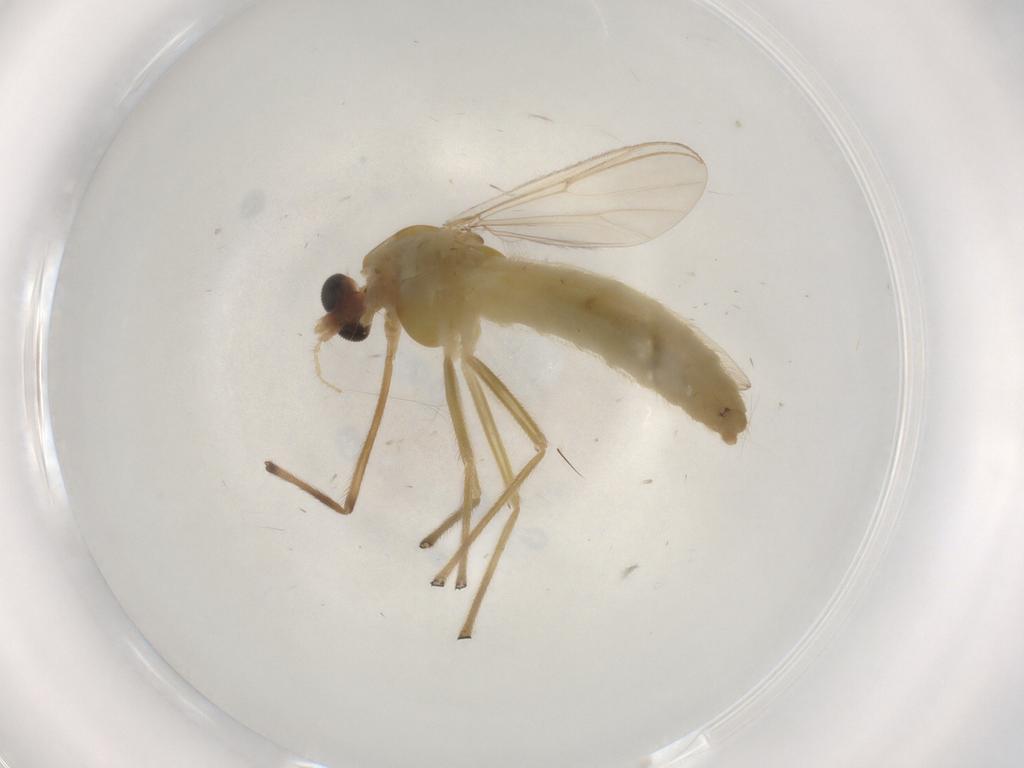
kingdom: Animalia
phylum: Arthropoda
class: Insecta
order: Diptera
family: Chironomidae
